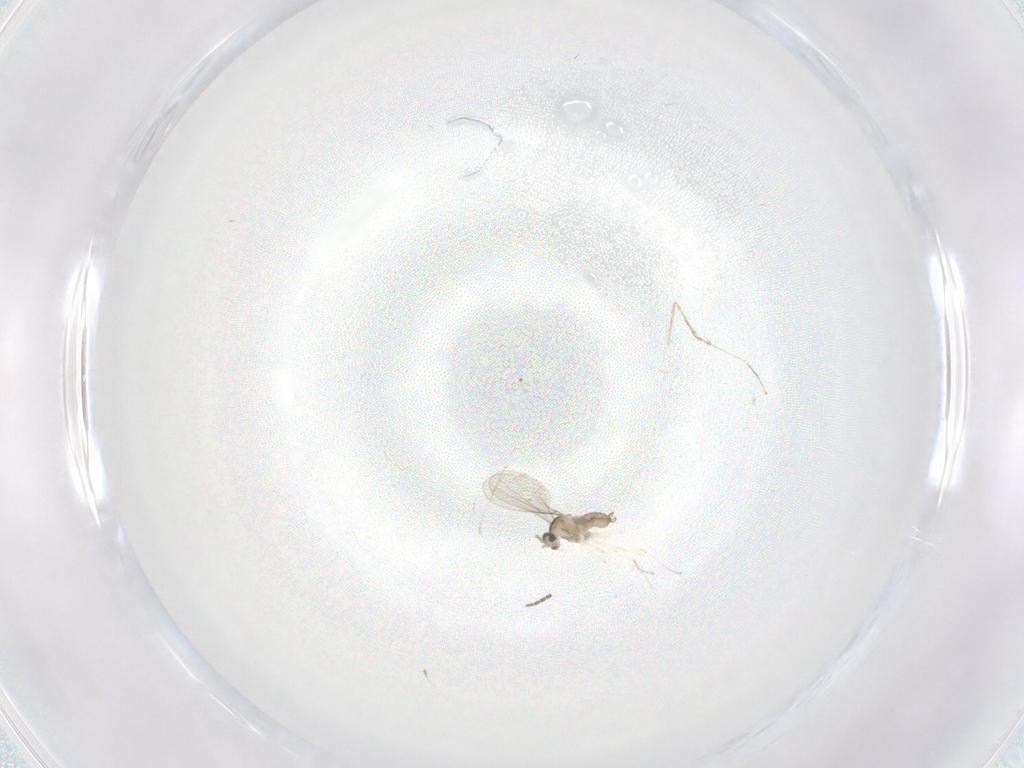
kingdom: Animalia
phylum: Arthropoda
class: Insecta
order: Diptera
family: Cecidomyiidae
